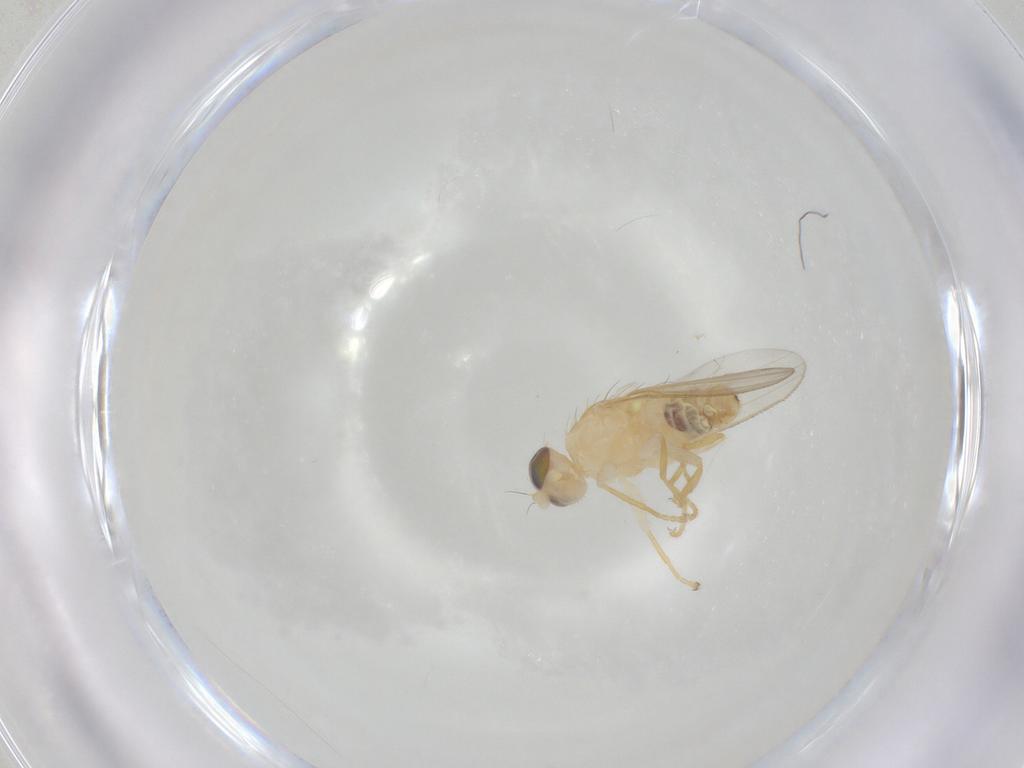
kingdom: Animalia
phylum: Arthropoda
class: Insecta
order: Diptera
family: Chyromyidae
